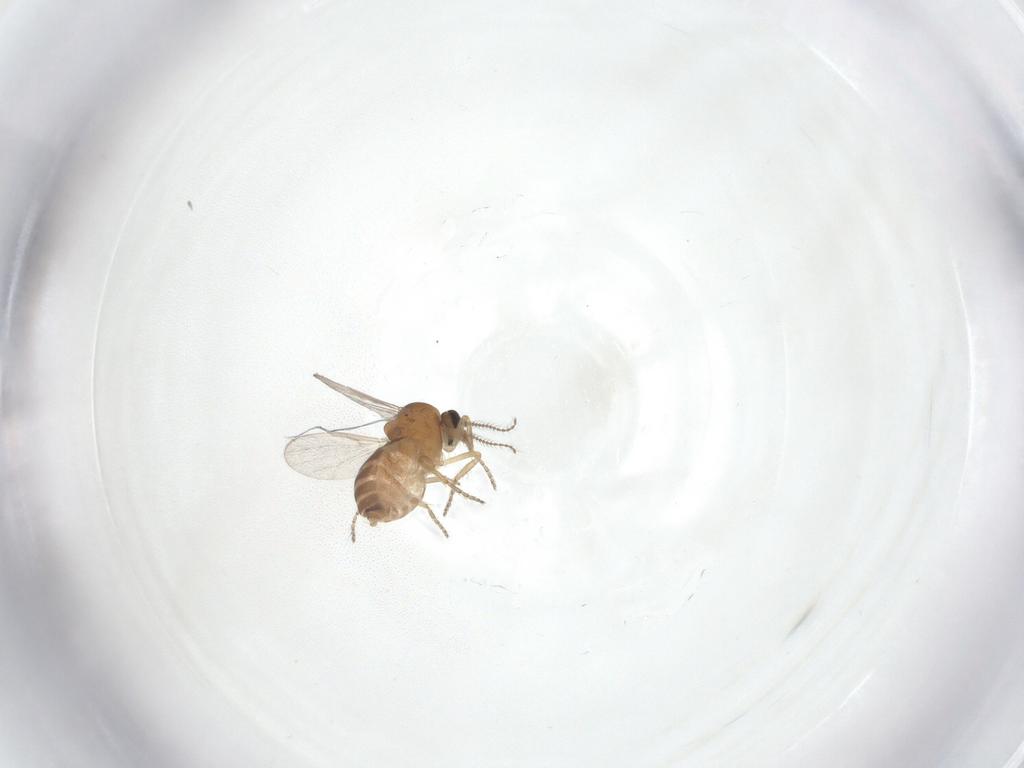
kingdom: Animalia
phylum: Arthropoda
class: Insecta
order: Diptera
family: Ceratopogonidae
